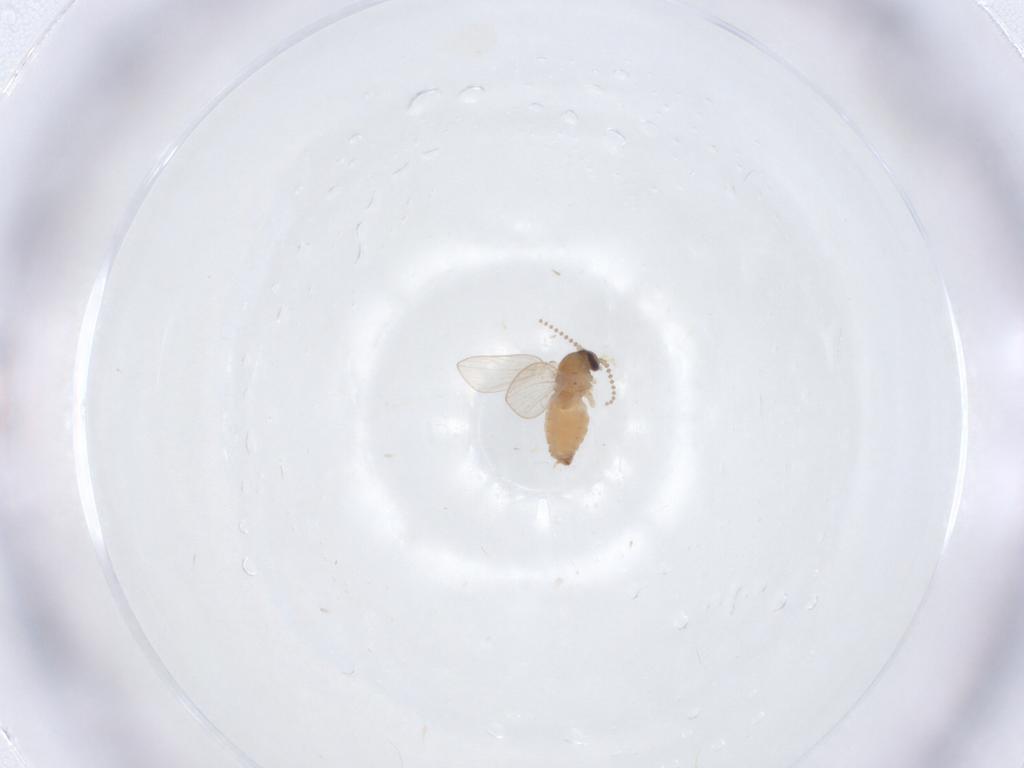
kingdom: Animalia
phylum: Arthropoda
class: Insecta
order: Diptera
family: Psychodidae
